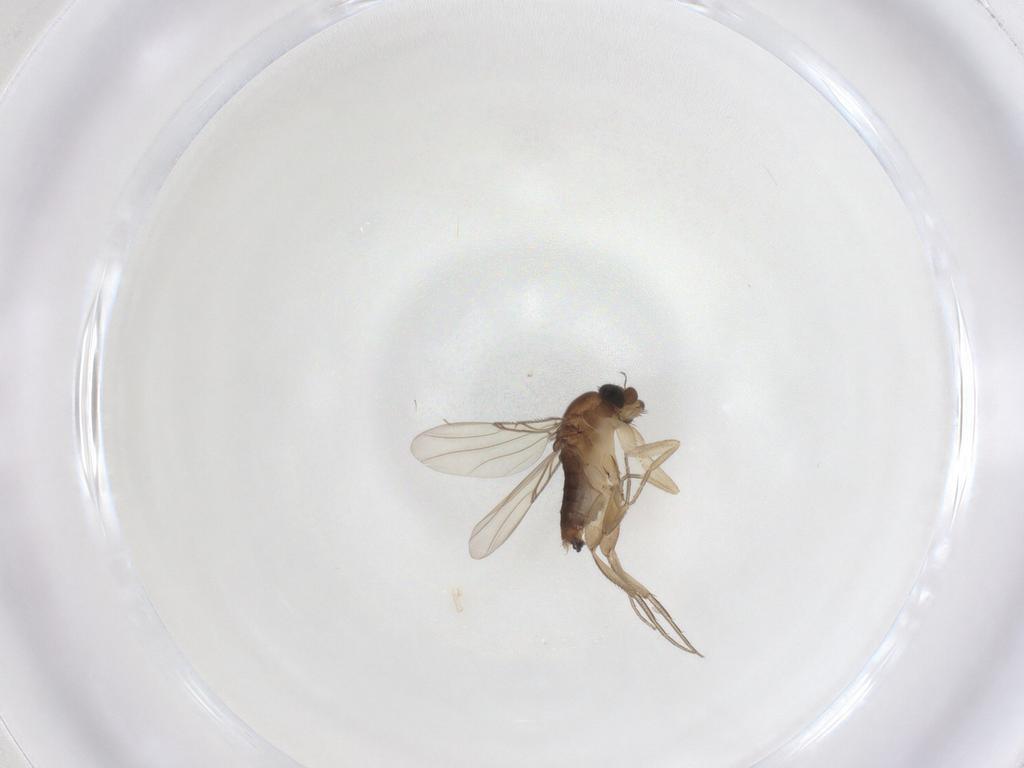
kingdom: Animalia
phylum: Arthropoda
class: Insecta
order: Diptera
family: Phoridae
